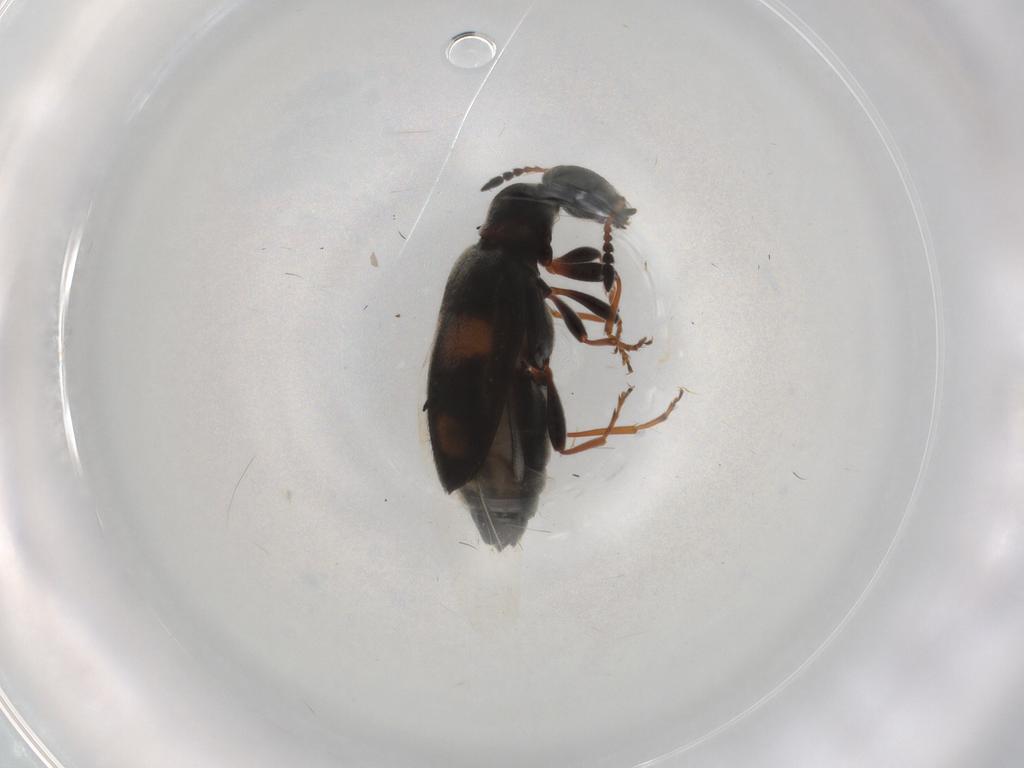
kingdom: Animalia
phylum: Arthropoda
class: Insecta
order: Coleoptera
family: Anthicidae
